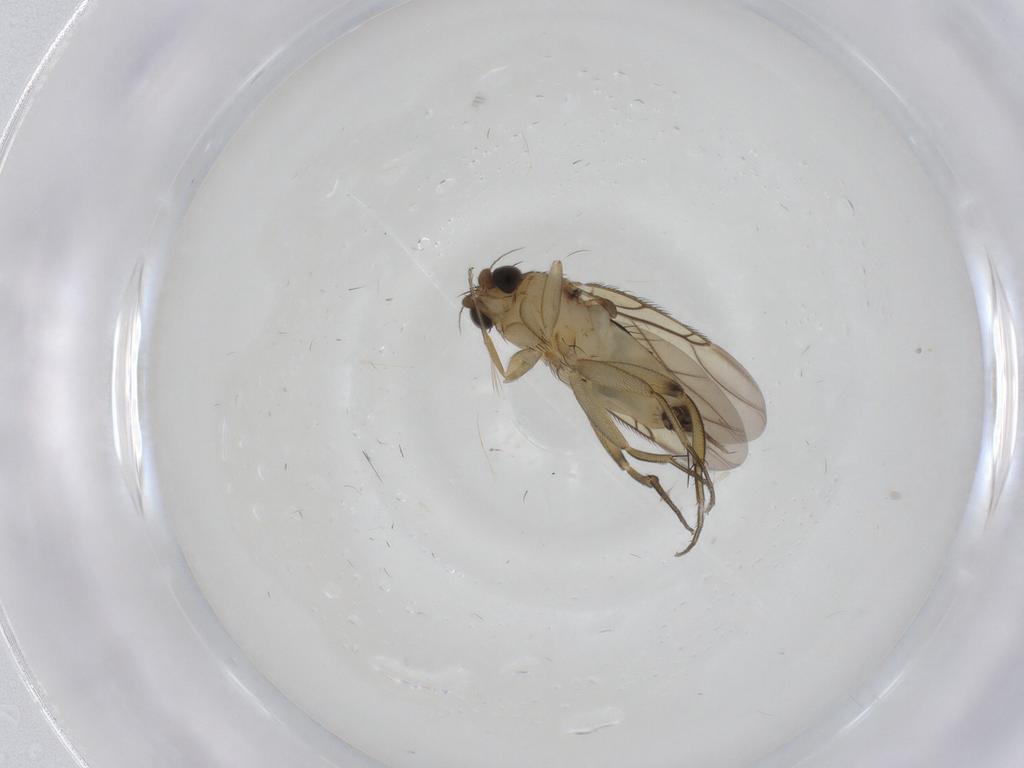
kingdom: Animalia
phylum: Arthropoda
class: Insecta
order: Diptera
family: Phoridae
